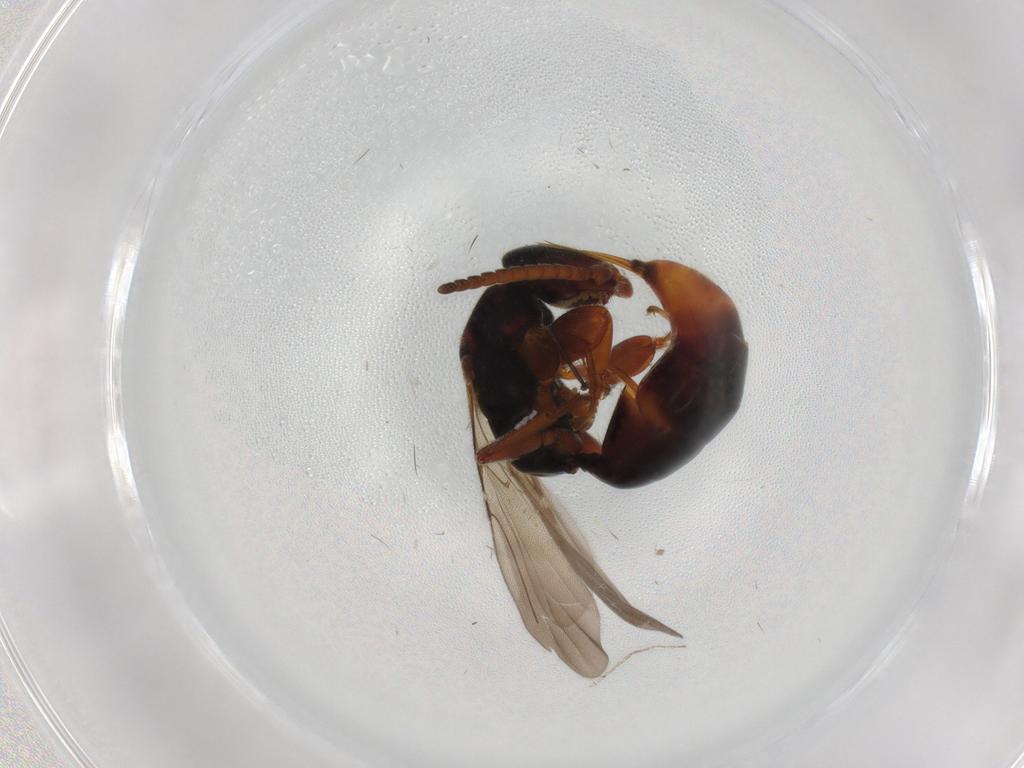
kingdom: Animalia
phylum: Arthropoda
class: Insecta
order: Hymenoptera
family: Bethylidae
